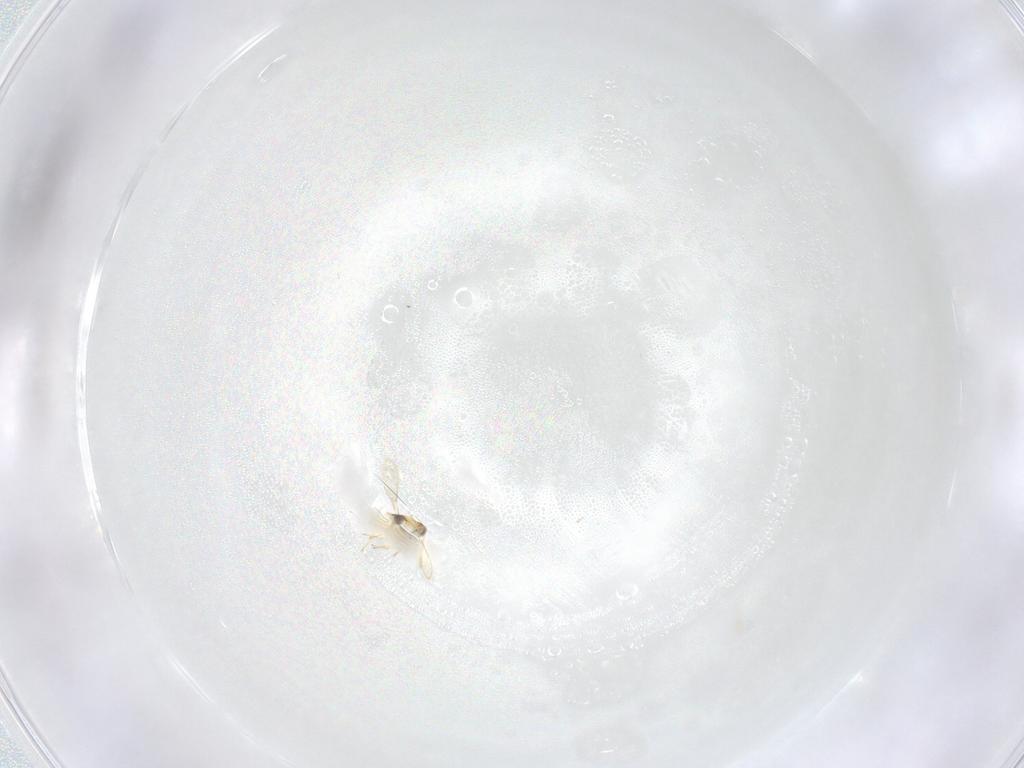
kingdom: Animalia
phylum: Arthropoda
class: Insecta
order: Hymenoptera
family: Aphelinidae
